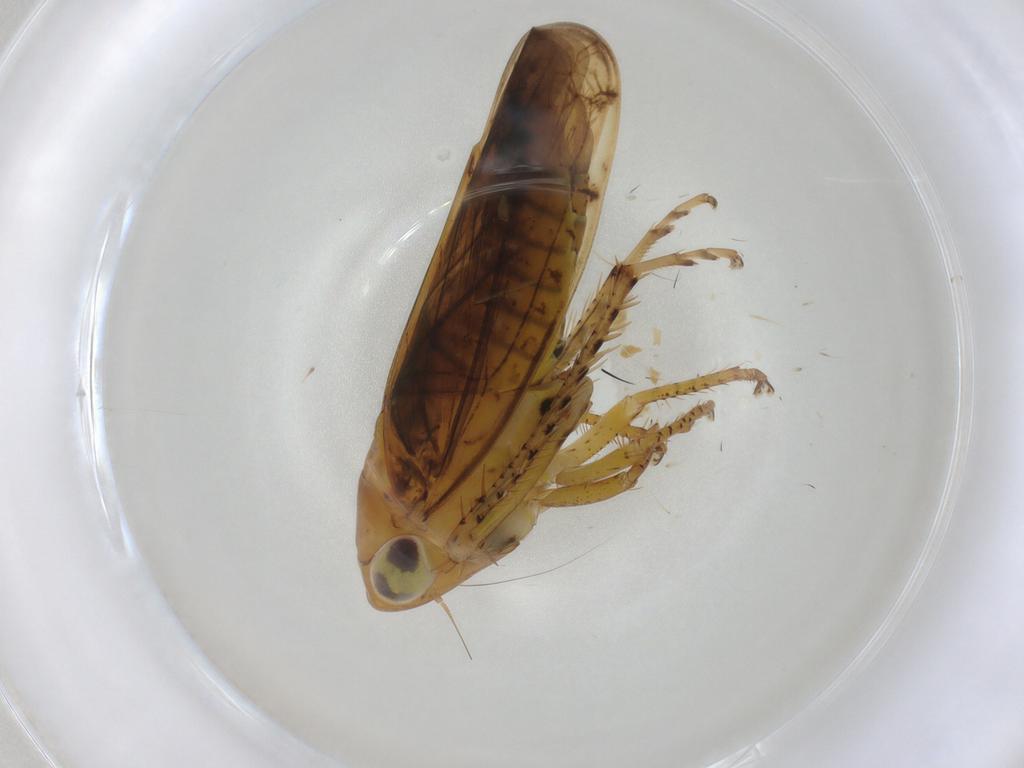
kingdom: Animalia
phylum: Arthropoda
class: Insecta
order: Hemiptera
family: Cicadellidae
